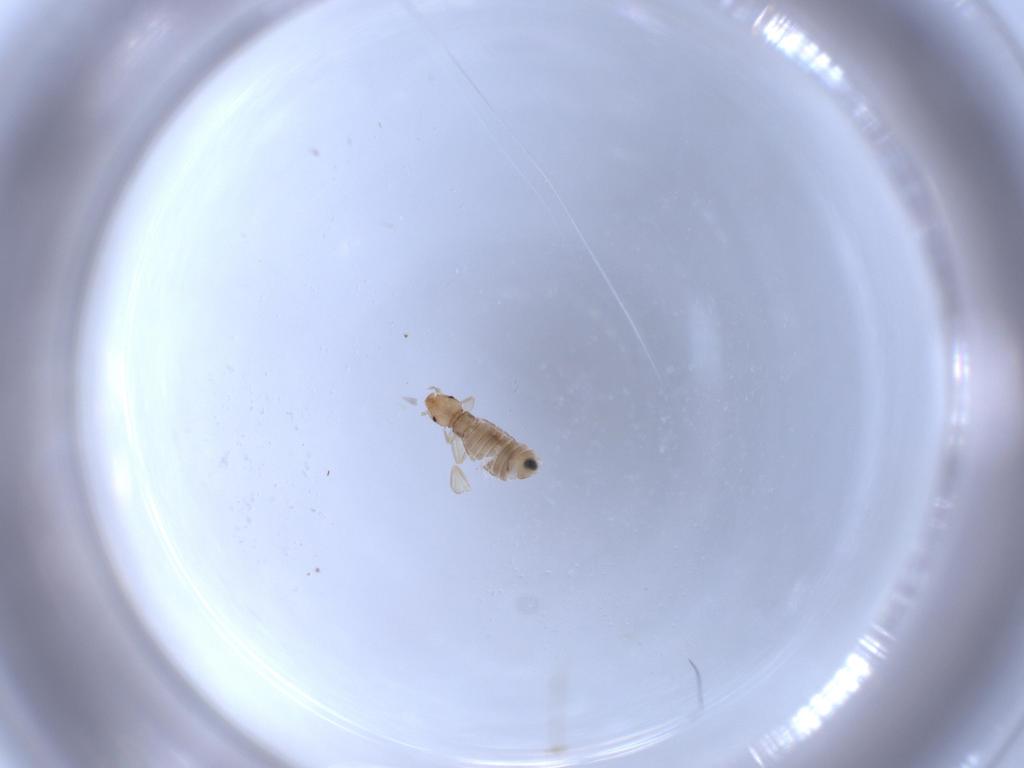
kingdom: Animalia
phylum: Arthropoda
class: Insecta
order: Psocodea
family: Liposcelididae
